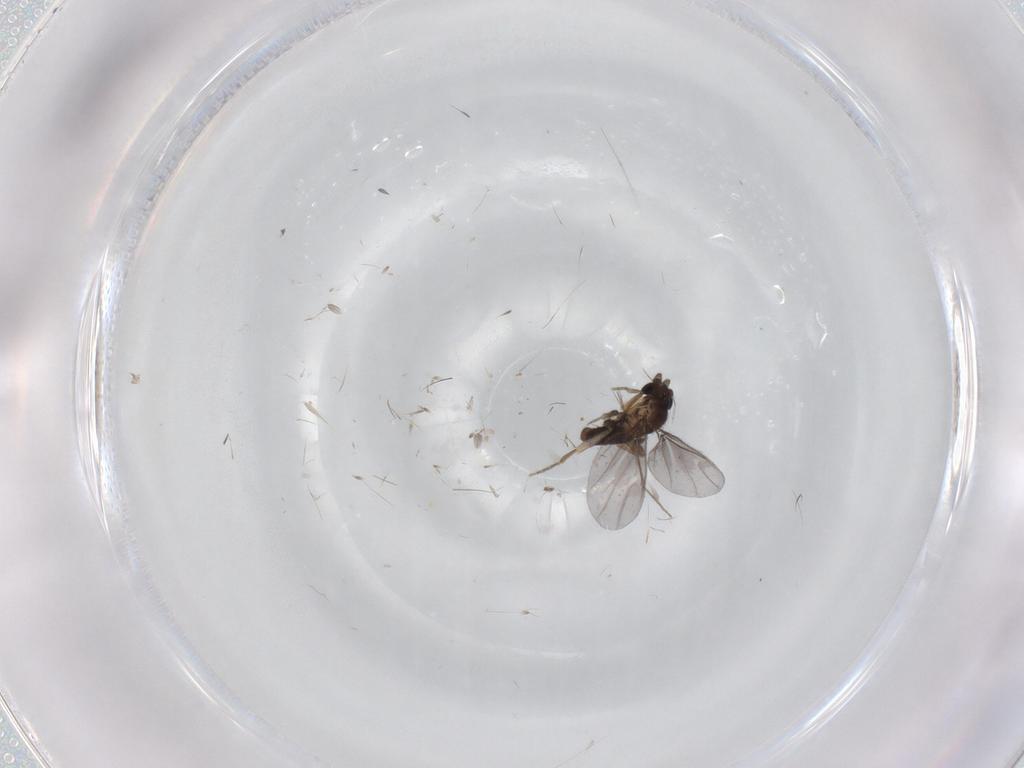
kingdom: Animalia
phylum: Arthropoda
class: Insecta
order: Diptera
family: Cecidomyiidae
